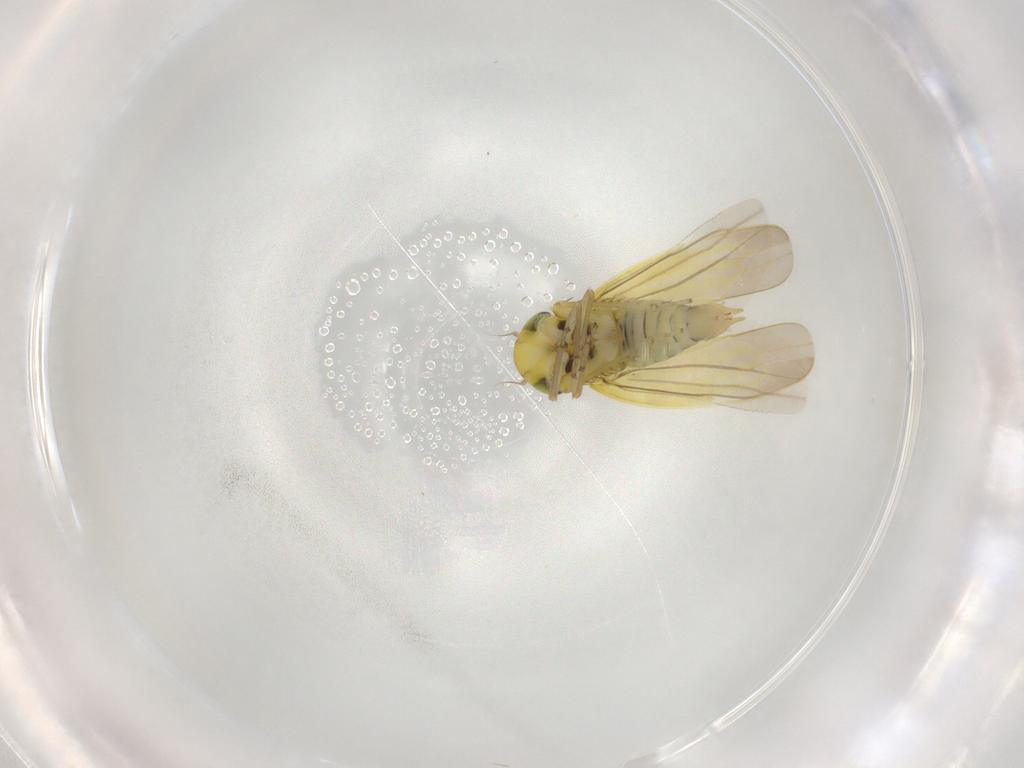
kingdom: Animalia
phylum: Arthropoda
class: Insecta
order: Hemiptera
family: Cicadellidae
